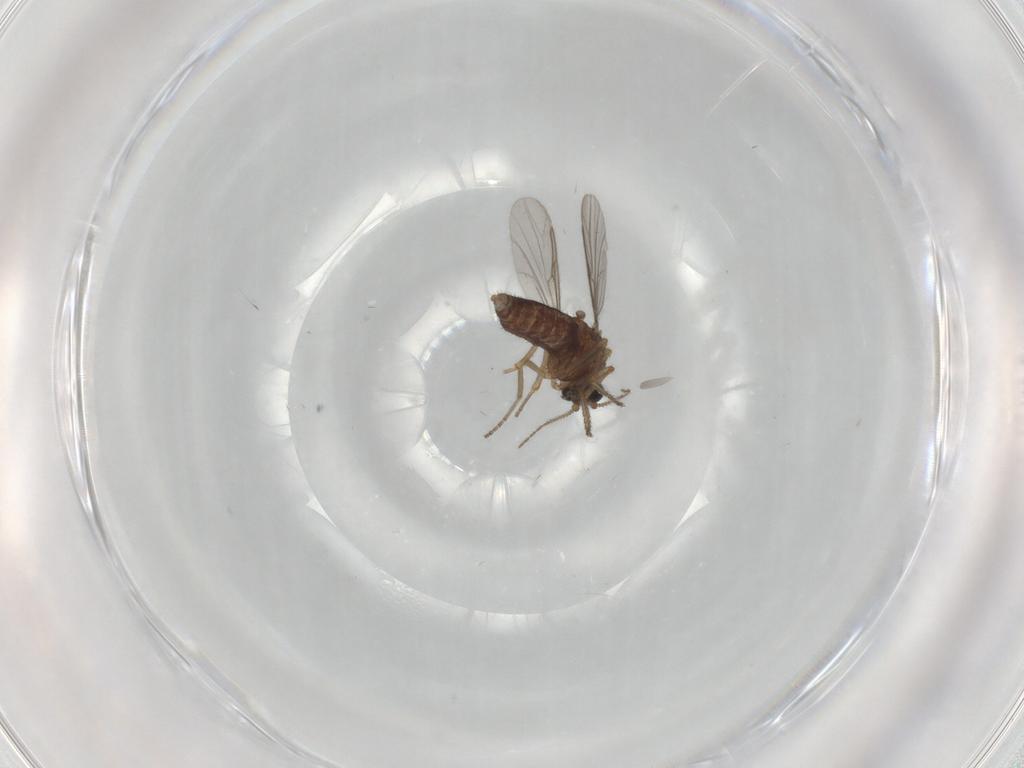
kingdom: Animalia
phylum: Arthropoda
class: Insecta
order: Diptera
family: Ceratopogonidae
